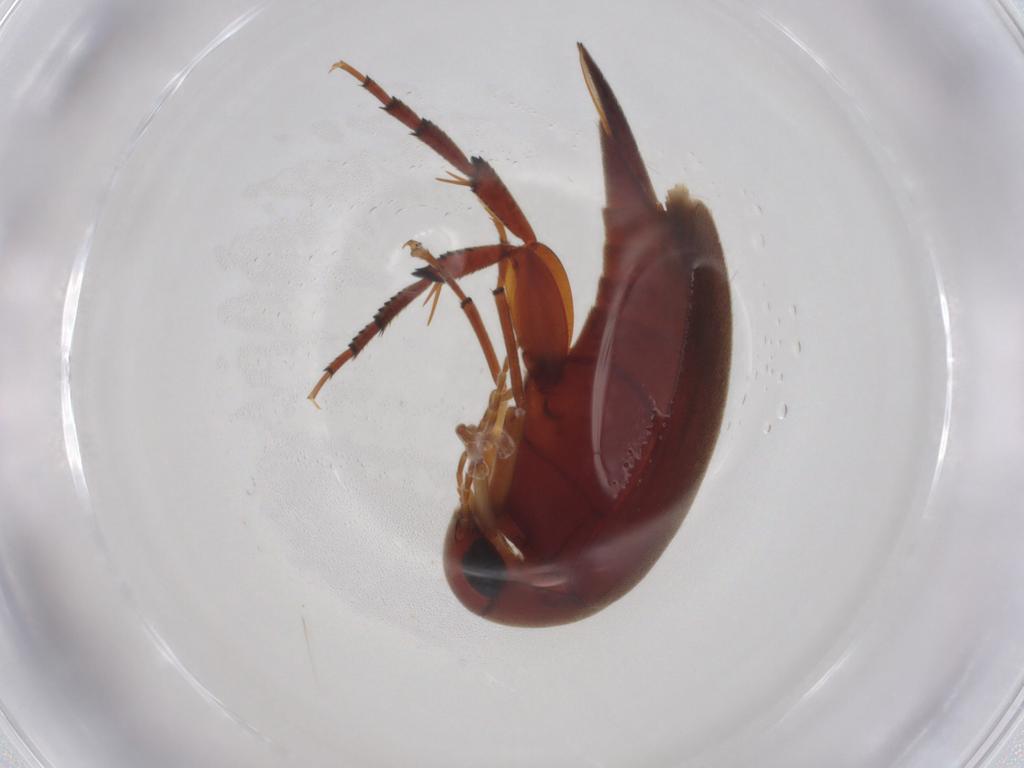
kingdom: Animalia
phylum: Arthropoda
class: Insecta
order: Coleoptera
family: Mordellidae
